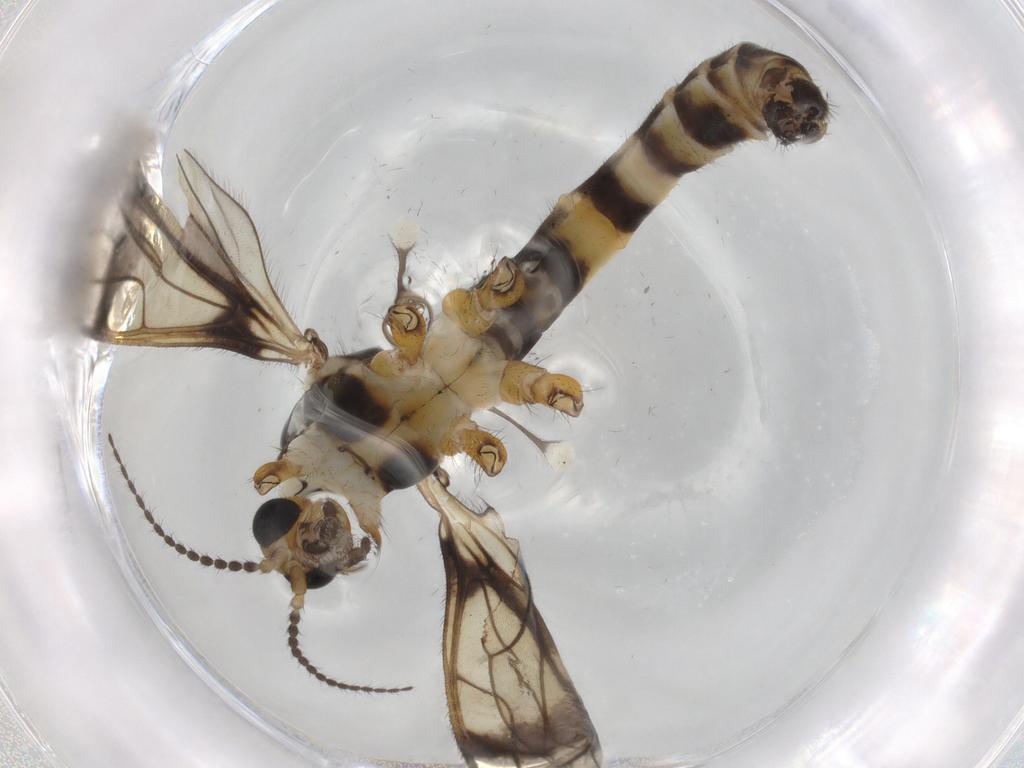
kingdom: Animalia
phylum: Arthropoda
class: Insecta
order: Diptera
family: Limoniidae
